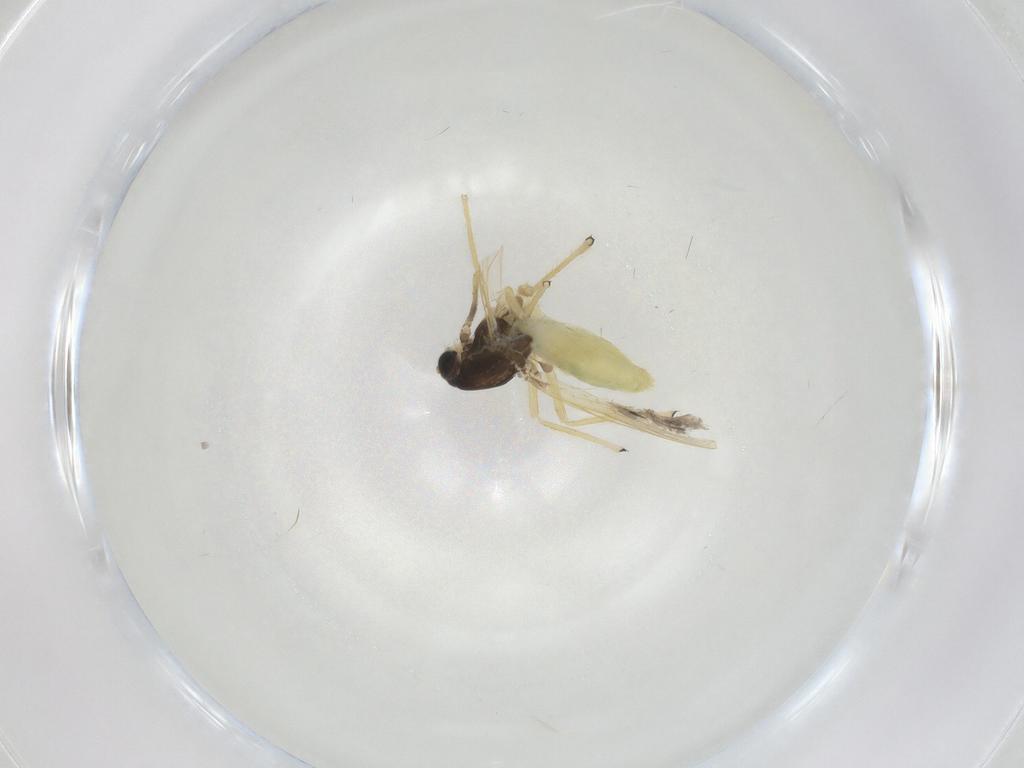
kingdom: Animalia
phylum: Arthropoda
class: Insecta
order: Diptera
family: Chironomidae
